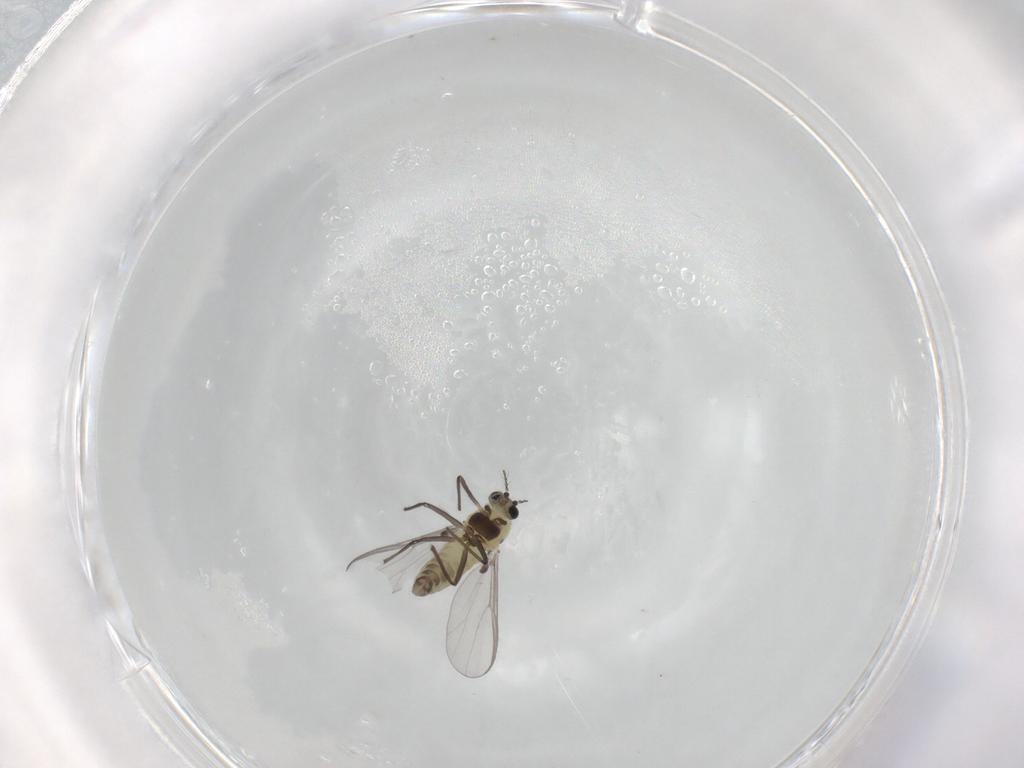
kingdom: Animalia
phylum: Arthropoda
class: Insecta
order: Diptera
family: Chironomidae
